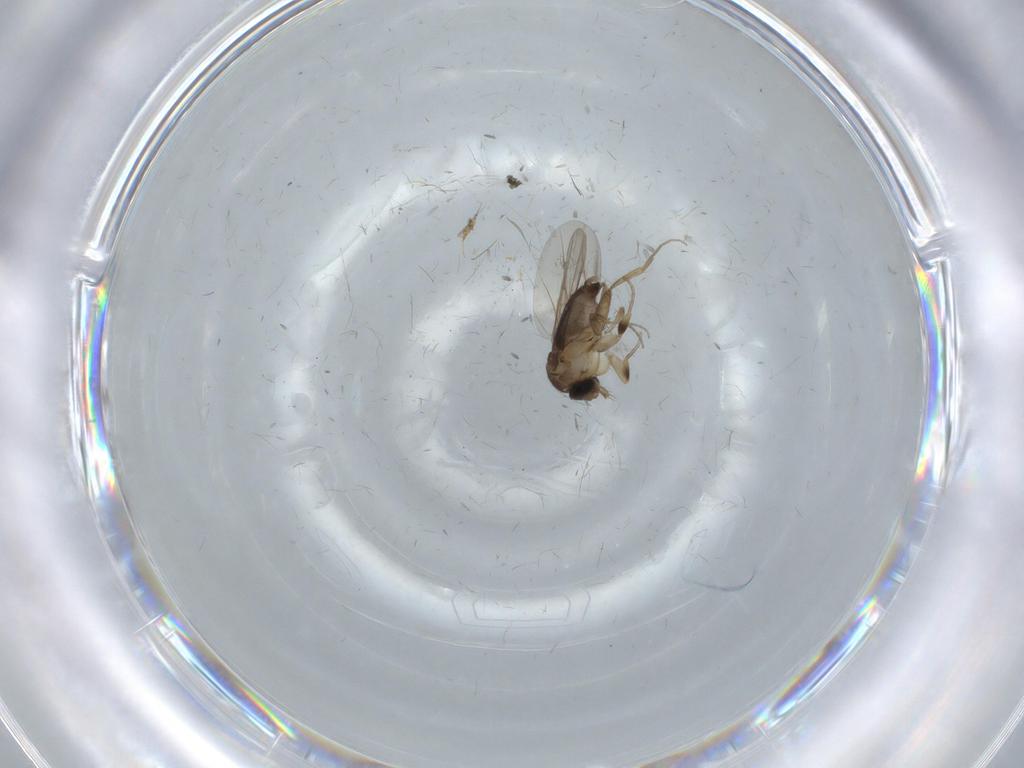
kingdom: Animalia
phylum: Arthropoda
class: Insecta
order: Diptera
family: Phoridae
